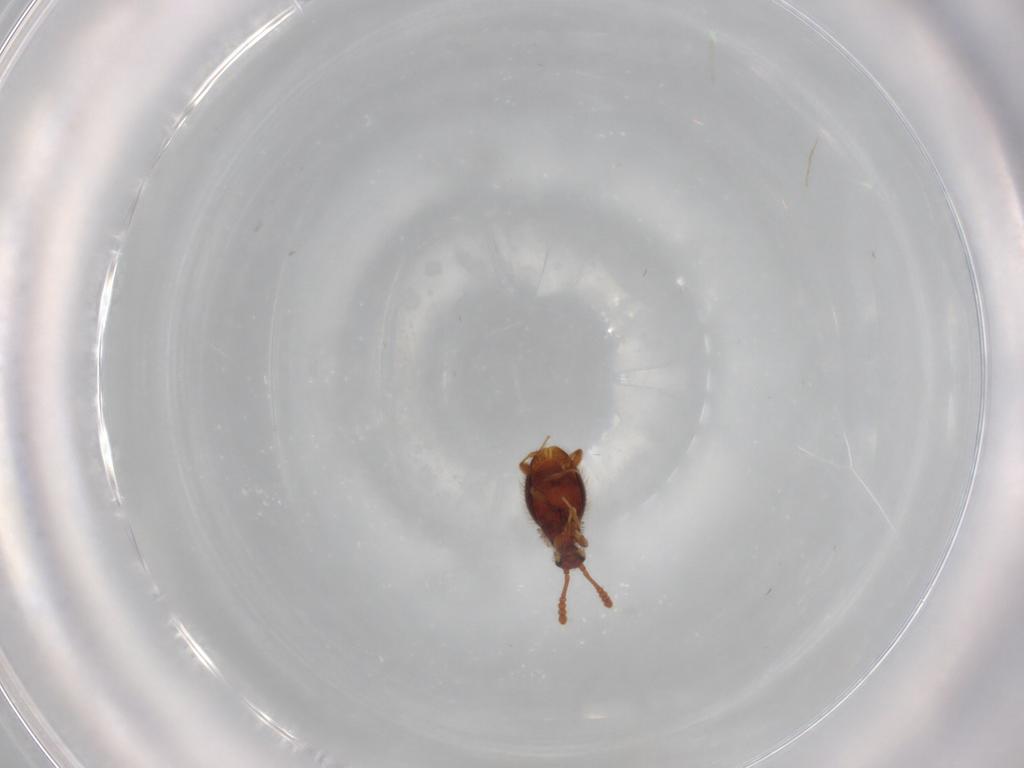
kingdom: Animalia
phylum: Arthropoda
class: Insecta
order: Coleoptera
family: Staphylinidae
